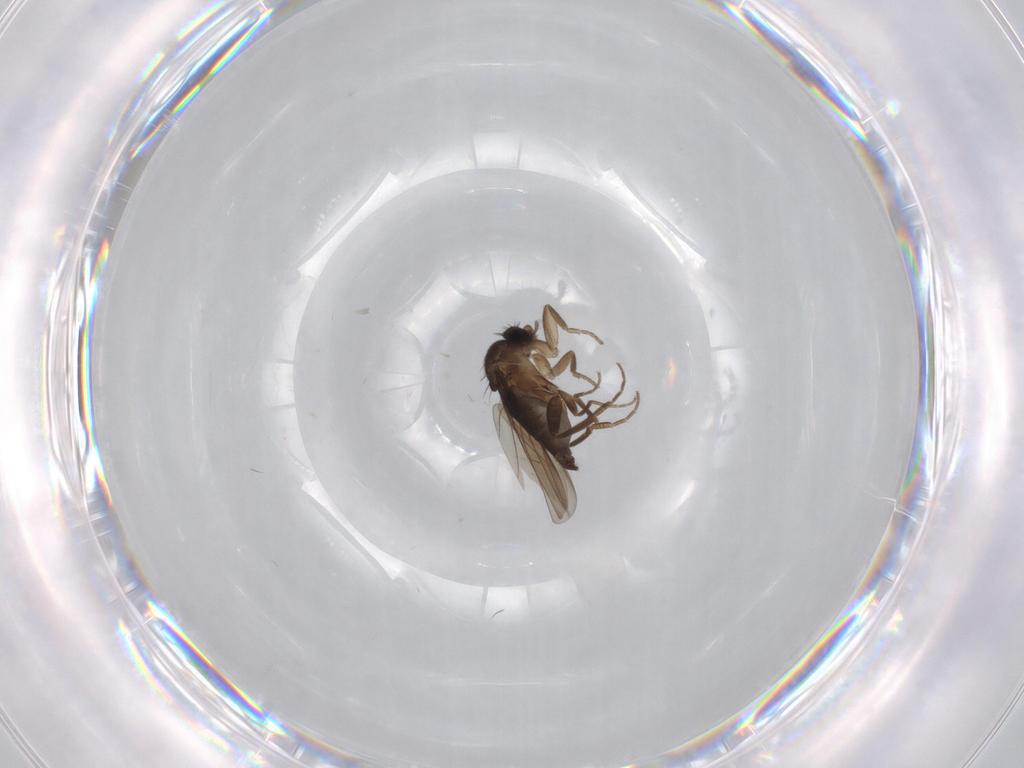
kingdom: Animalia
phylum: Arthropoda
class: Insecta
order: Diptera
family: Phoridae
